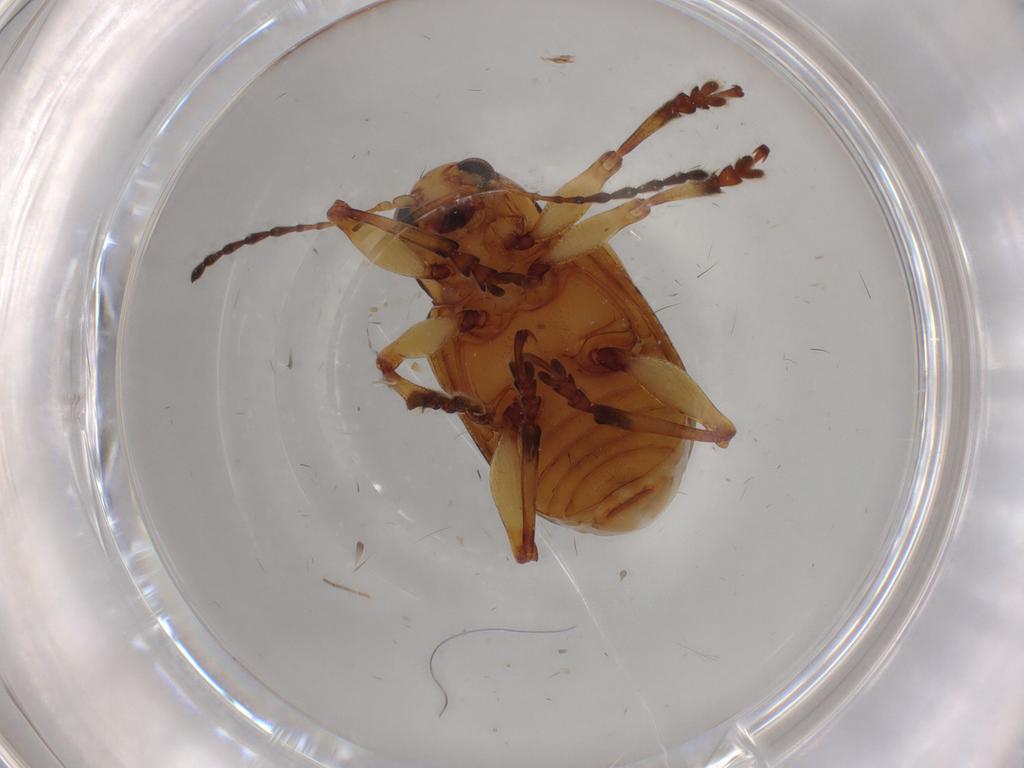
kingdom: Animalia
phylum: Arthropoda
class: Insecta
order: Coleoptera
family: Chrysomelidae
